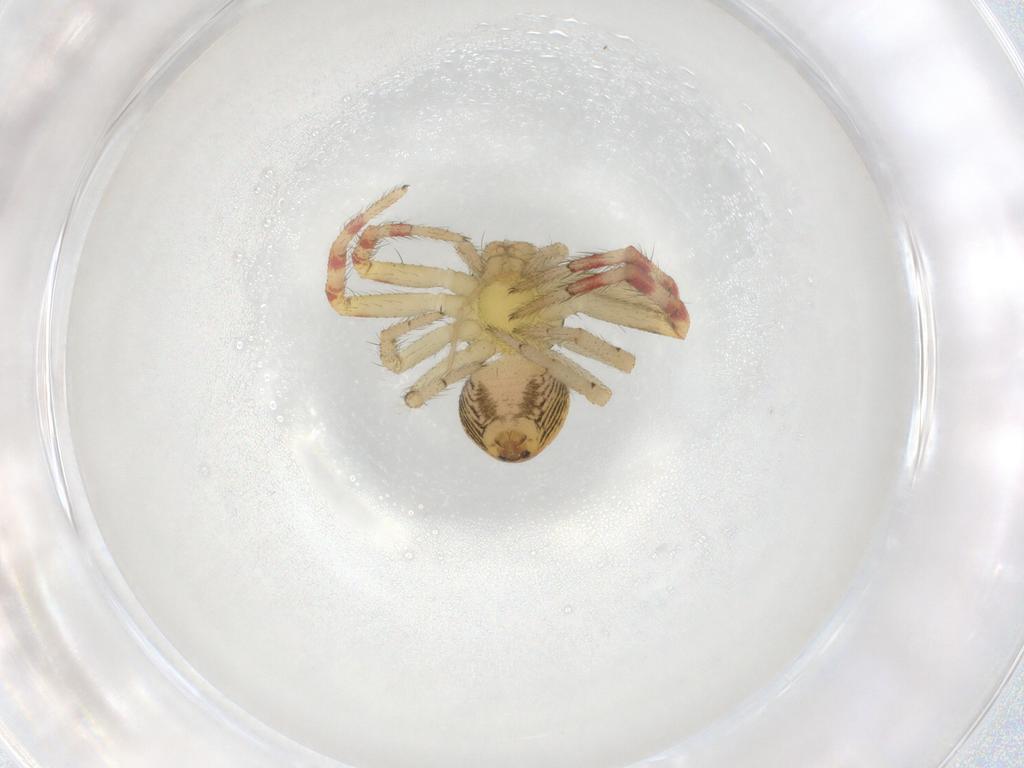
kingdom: Animalia
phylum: Arthropoda
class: Arachnida
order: Araneae
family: Thomisidae
